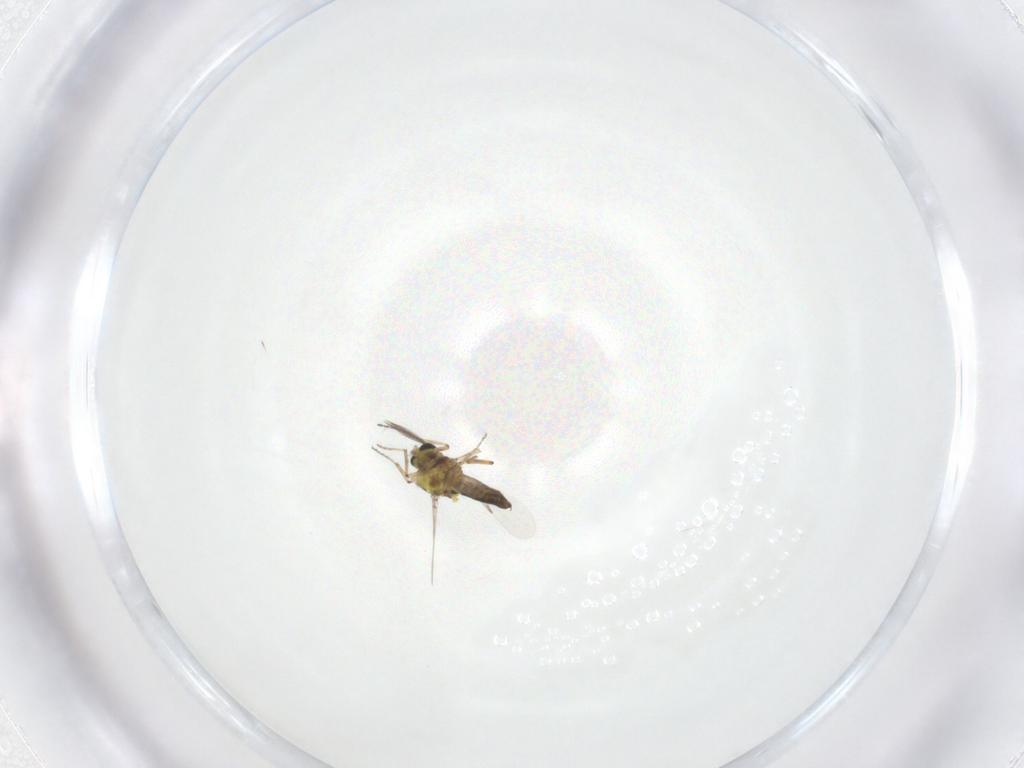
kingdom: Animalia
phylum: Arthropoda
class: Insecta
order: Diptera
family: Ceratopogonidae
